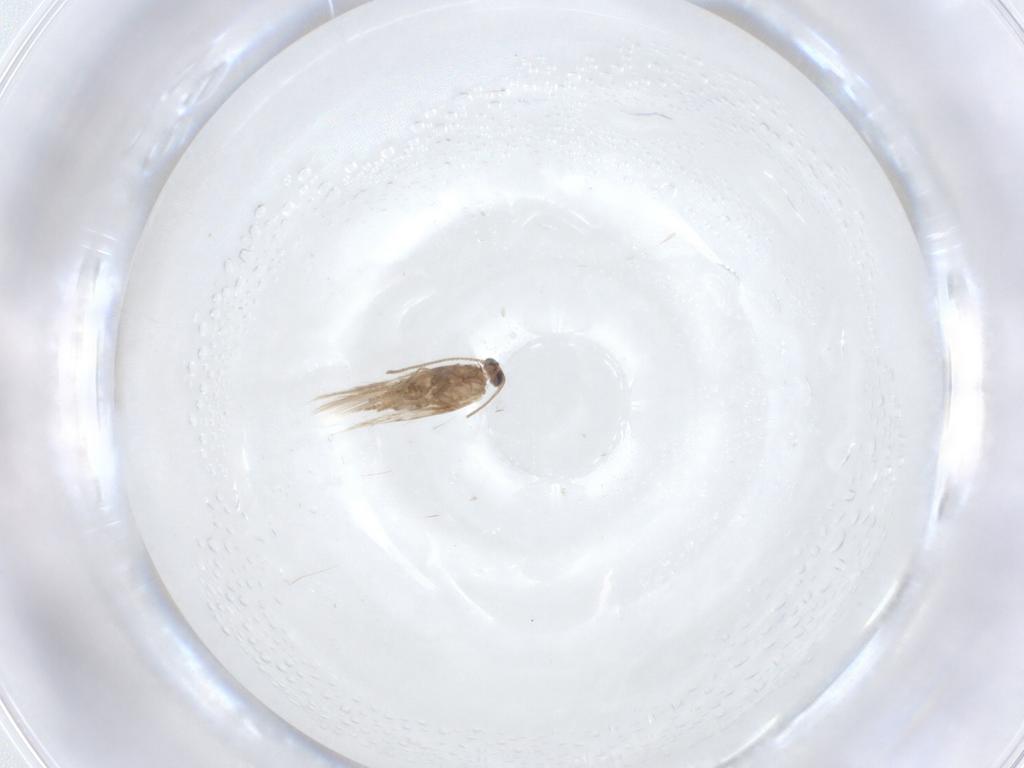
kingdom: Animalia
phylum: Arthropoda
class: Insecta
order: Lepidoptera
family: Nepticulidae
